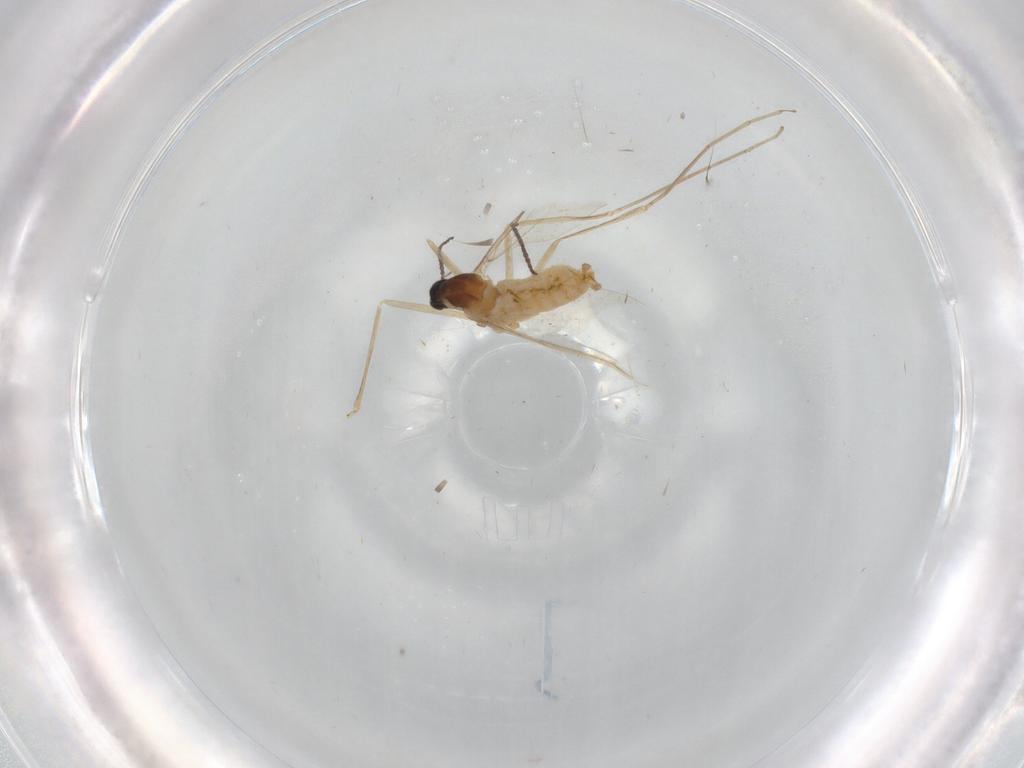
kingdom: Animalia
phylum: Arthropoda
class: Insecta
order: Diptera
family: Cecidomyiidae
